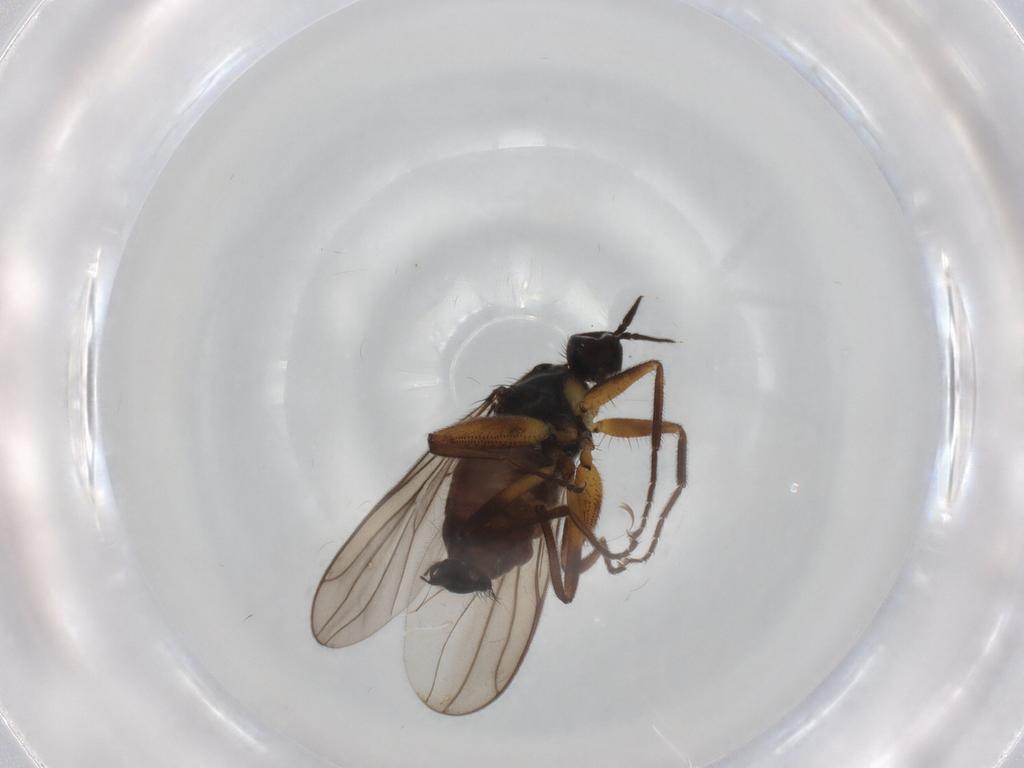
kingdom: Animalia
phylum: Arthropoda
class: Insecta
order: Diptera
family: Hybotidae
